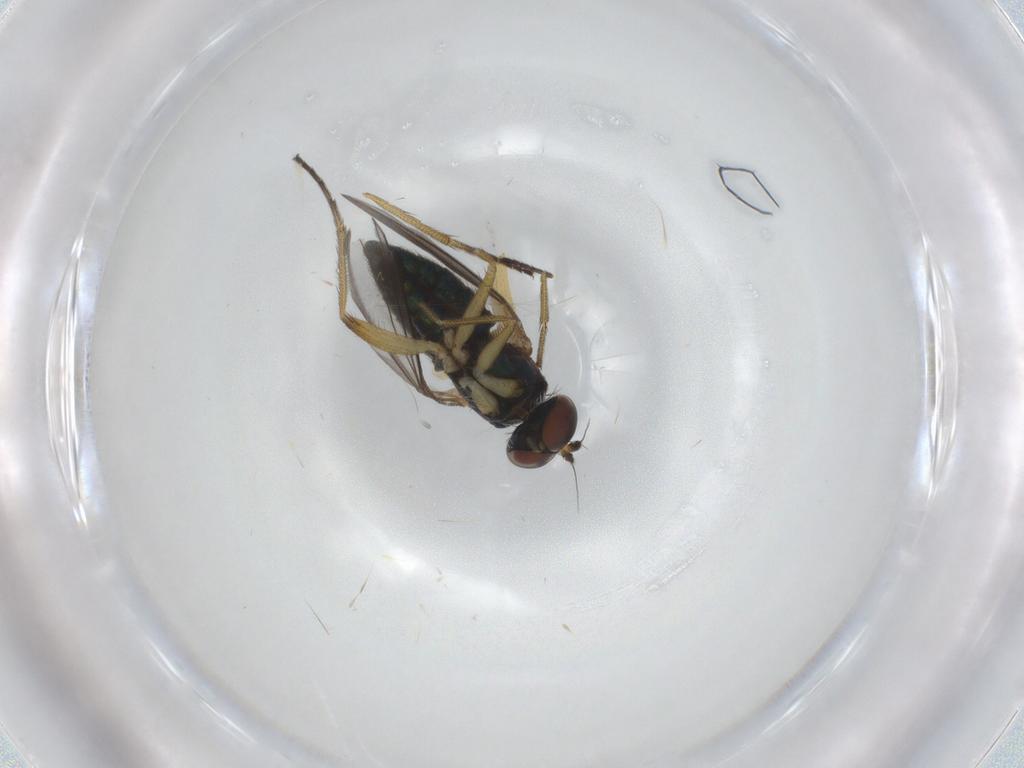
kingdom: Animalia
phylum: Arthropoda
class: Insecta
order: Diptera
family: Dolichopodidae
